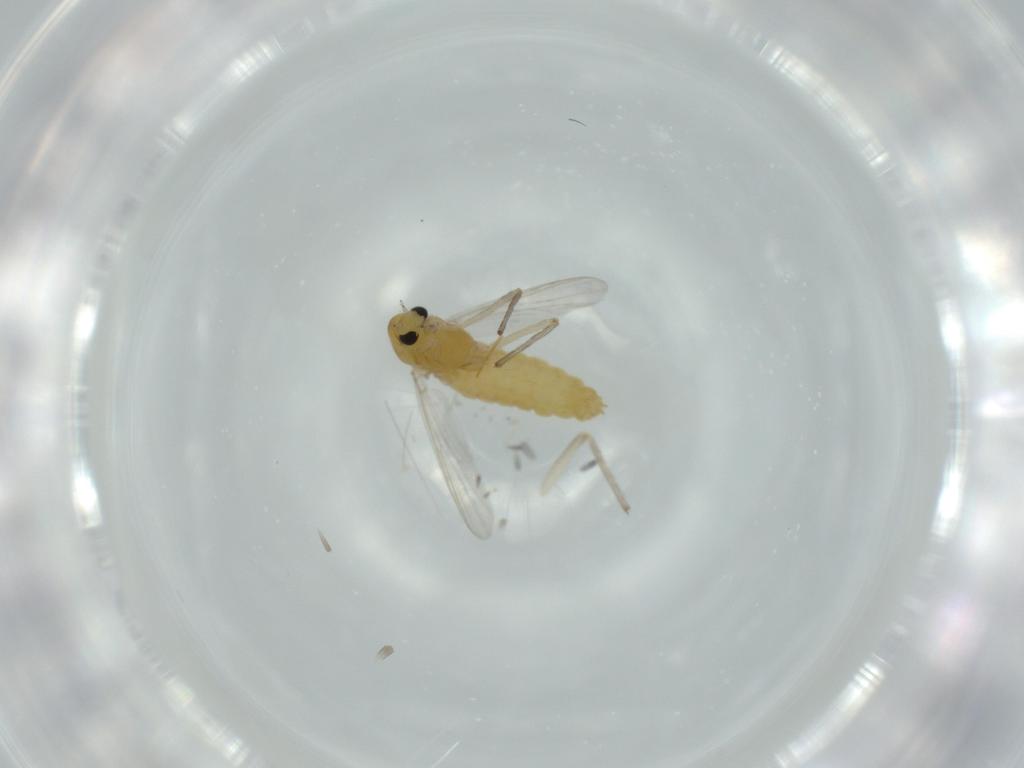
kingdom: Animalia
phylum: Arthropoda
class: Insecta
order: Diptera
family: Chironomidae
